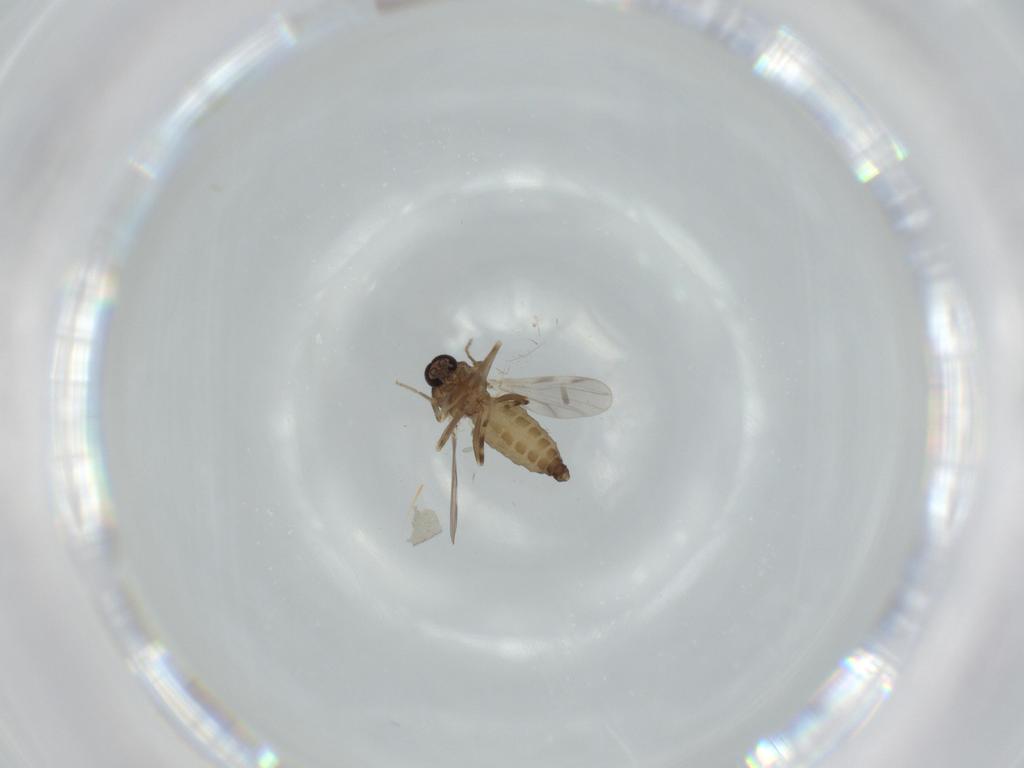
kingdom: Animalia
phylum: Arthropoda
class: Insecta
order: Diptera
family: Ceratopogonidae
